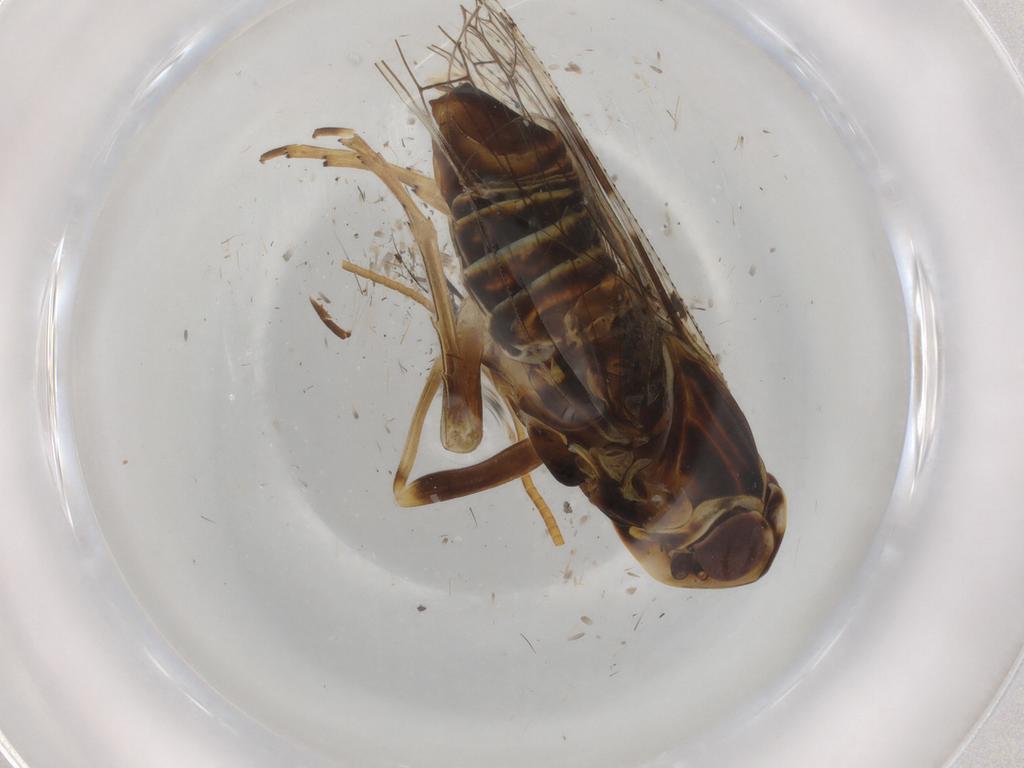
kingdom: Animalia
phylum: Arthropoda
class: Insecta
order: Hemiptera
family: Cixiidae
